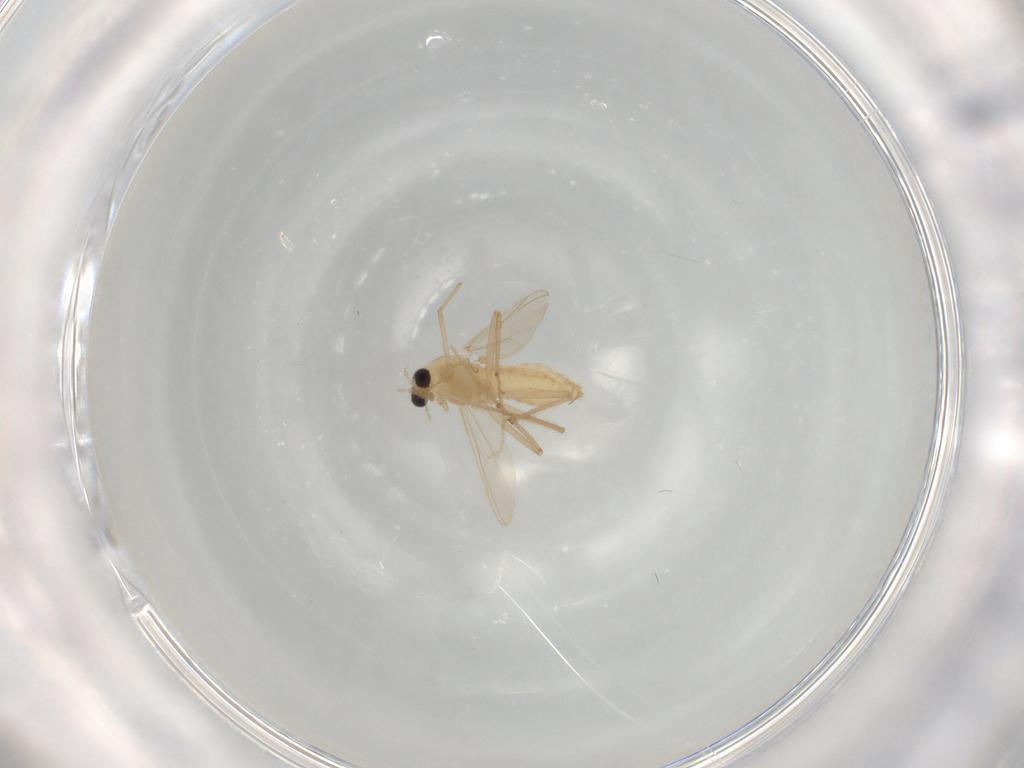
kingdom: Animalia
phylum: Arthropoda
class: Insecta
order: Diptera
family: Chironomidae
